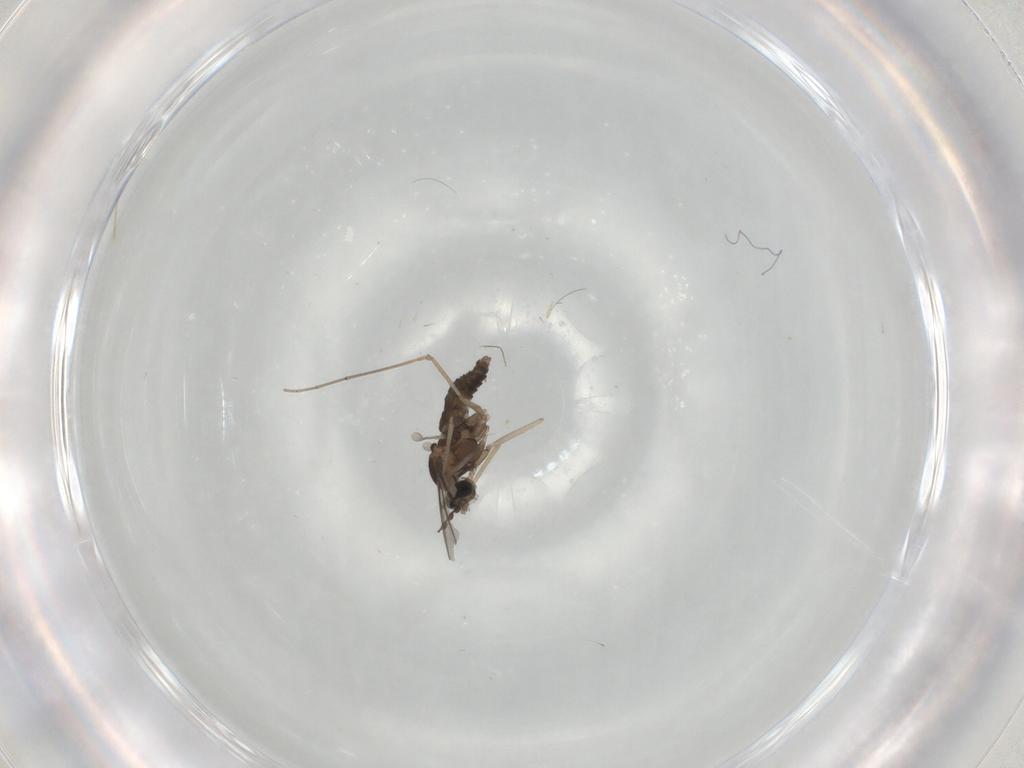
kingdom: Animalia
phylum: Arthropoda
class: Insecta
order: Diptera
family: Cecidomyiidae
